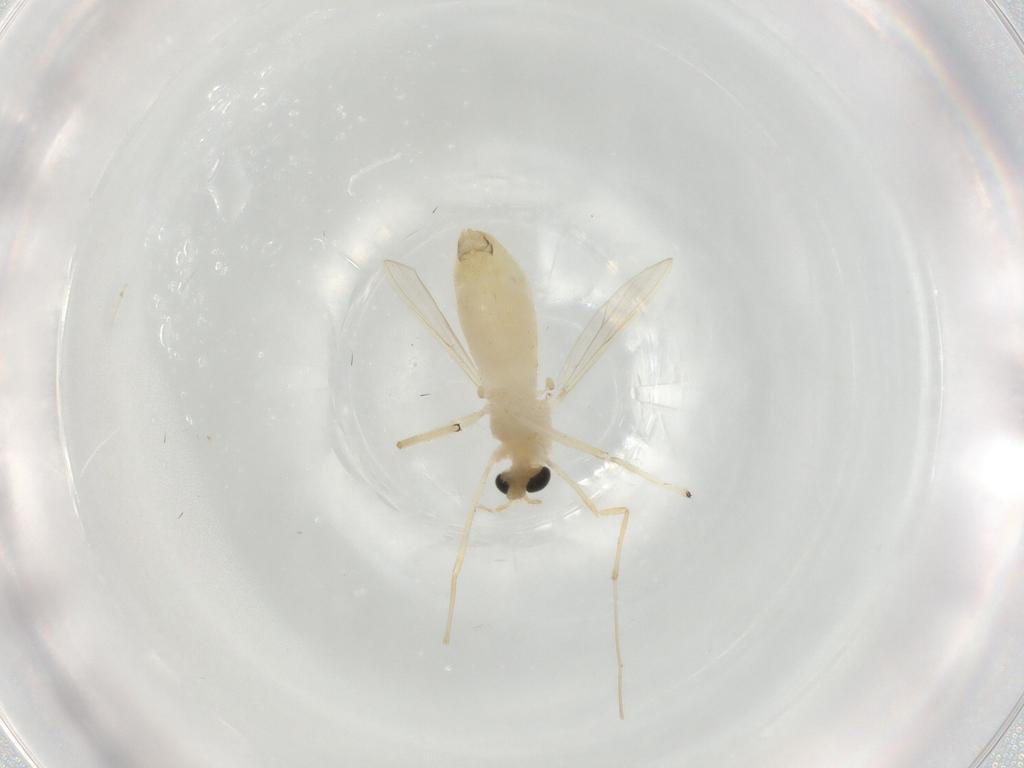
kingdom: Animalia
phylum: Arthropoda
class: Insecta
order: Diptera
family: Chironomidae
